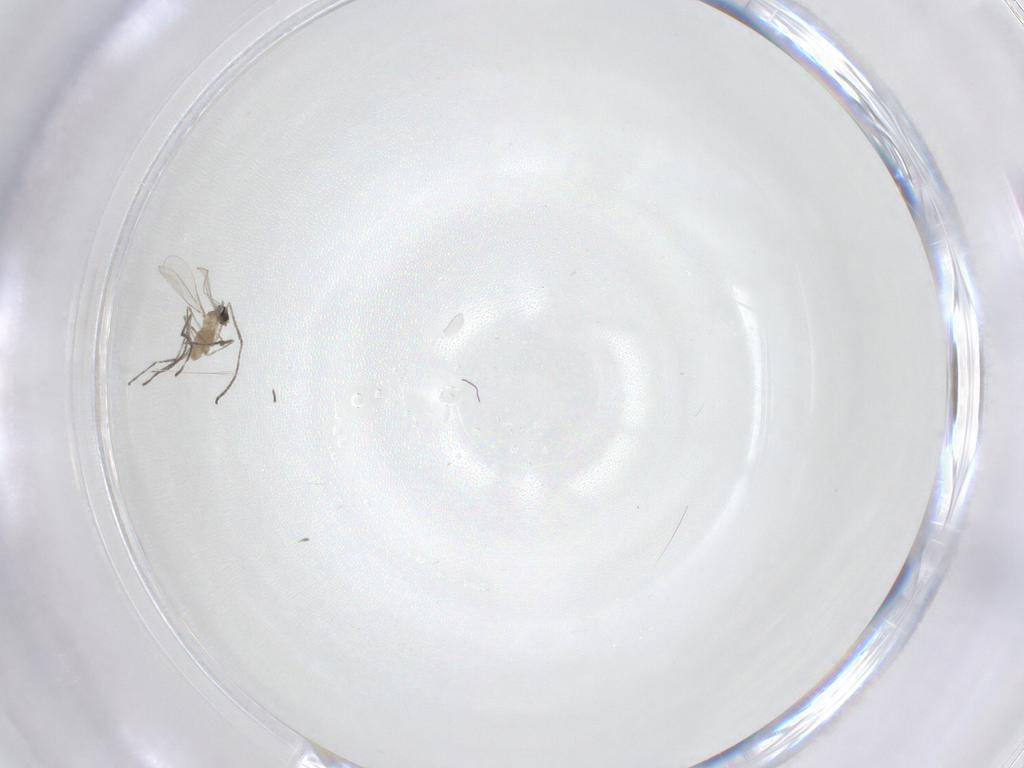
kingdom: Animalia
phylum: Arthropoda
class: Insecta
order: Diptera
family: Cecidomyiidae
